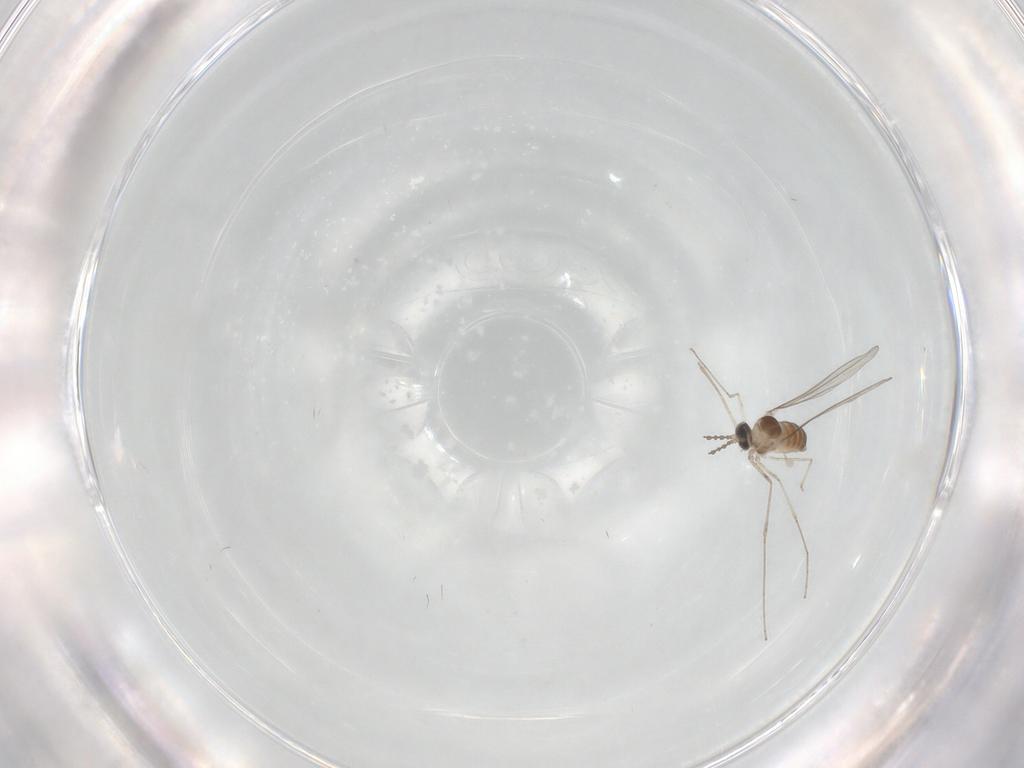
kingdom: Animalia
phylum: Arthropoda
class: Insecta
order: Diptera
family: Cecidomyiidae
